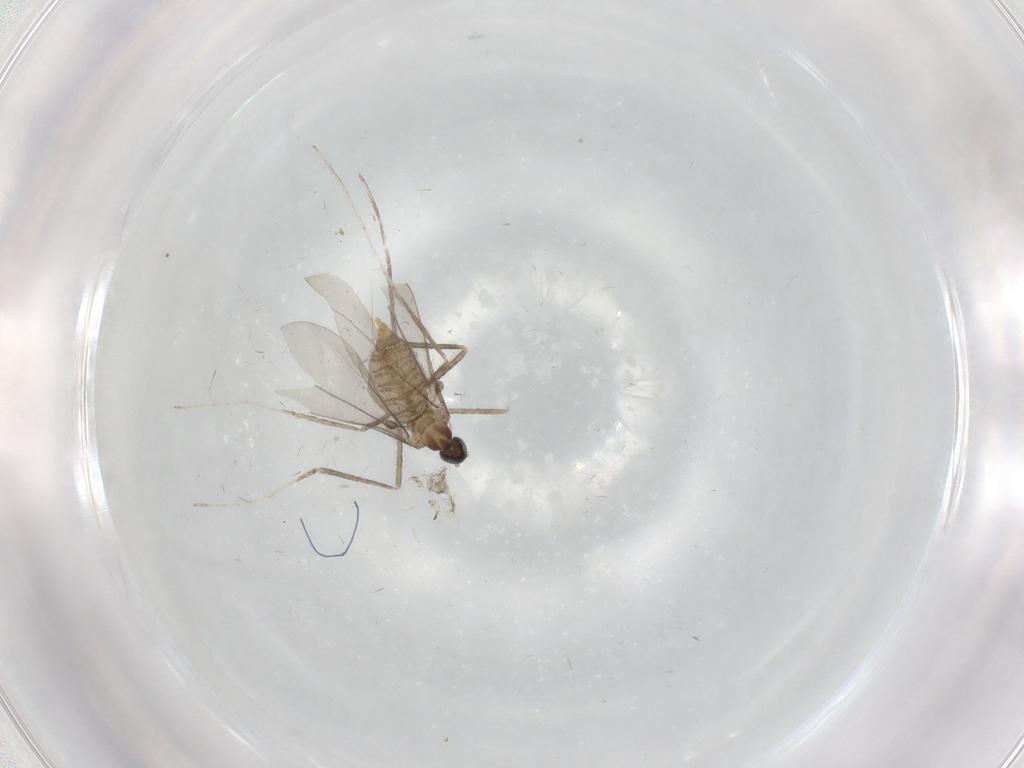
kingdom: Animalia
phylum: Arthropoda
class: Insecta
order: Diptera
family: Cecidomyiidae
